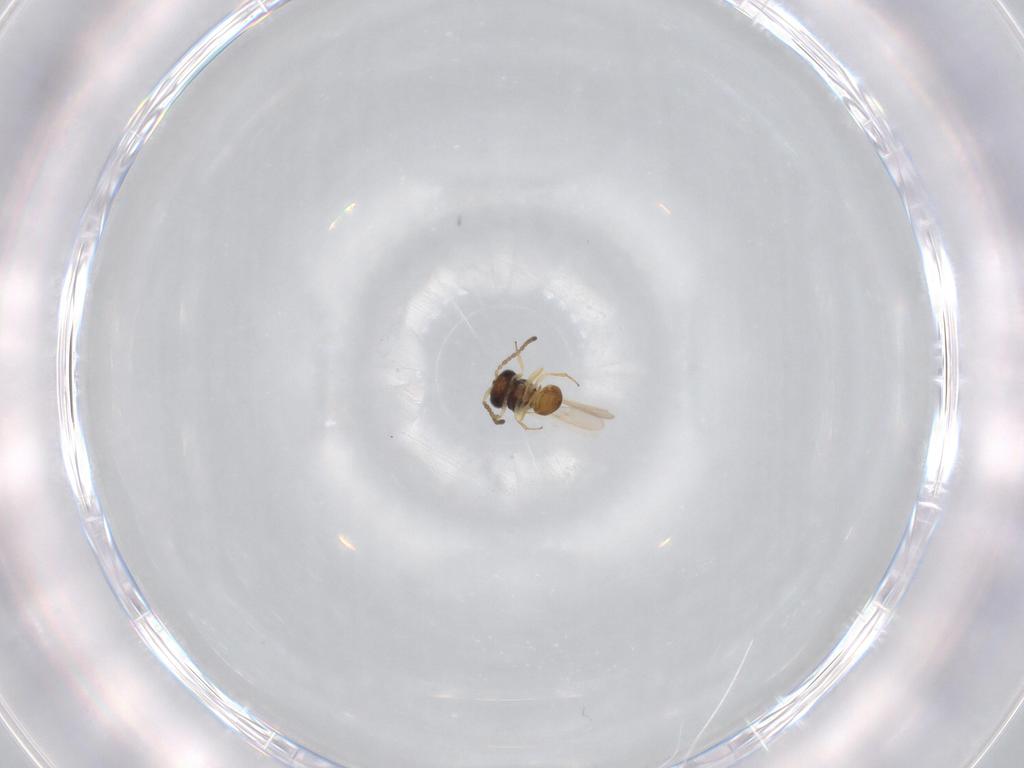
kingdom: Animalia
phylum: Arthropoda
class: Insecta
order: Hymenoptera
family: Scelionidae
